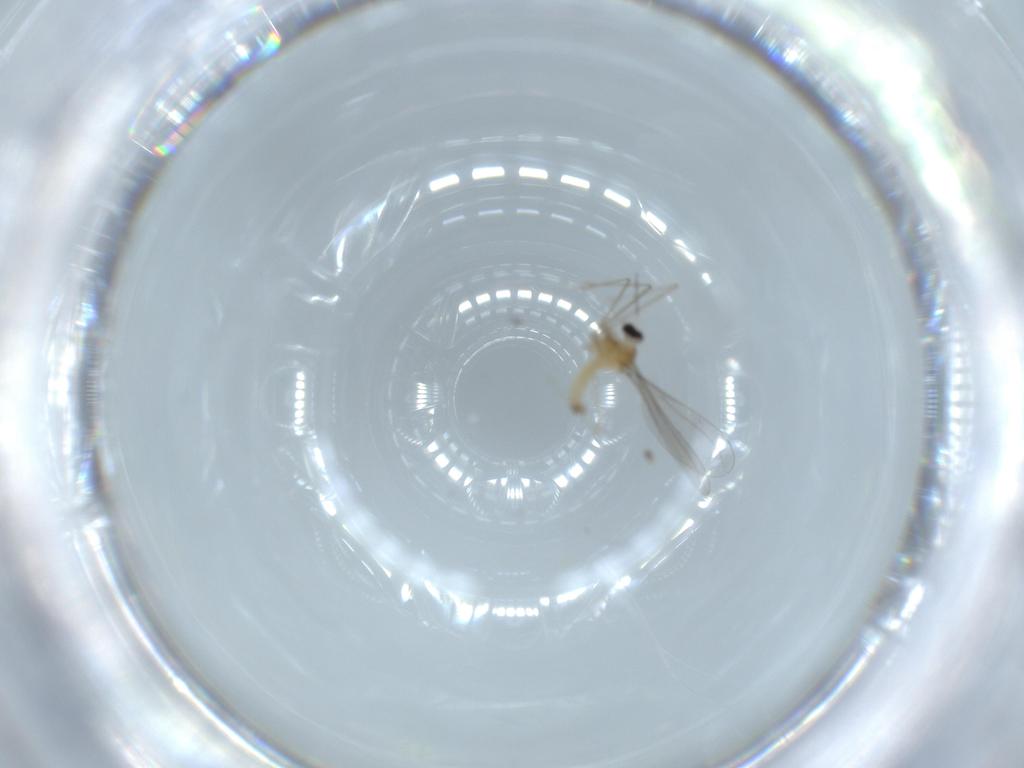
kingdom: Animalia
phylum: Arthropoda
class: Insecta
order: Diptera
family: Cecidomyiidae
